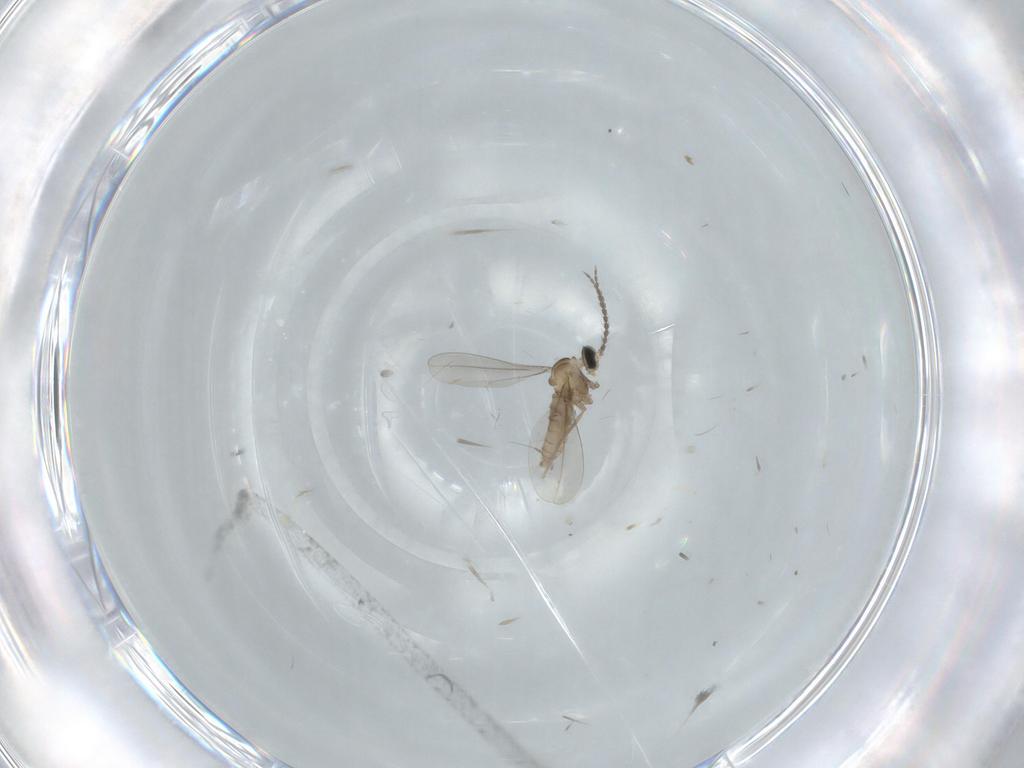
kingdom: Animalia
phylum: Arthropoda
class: Insecta
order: Diptera
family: Cecidomyiidae
